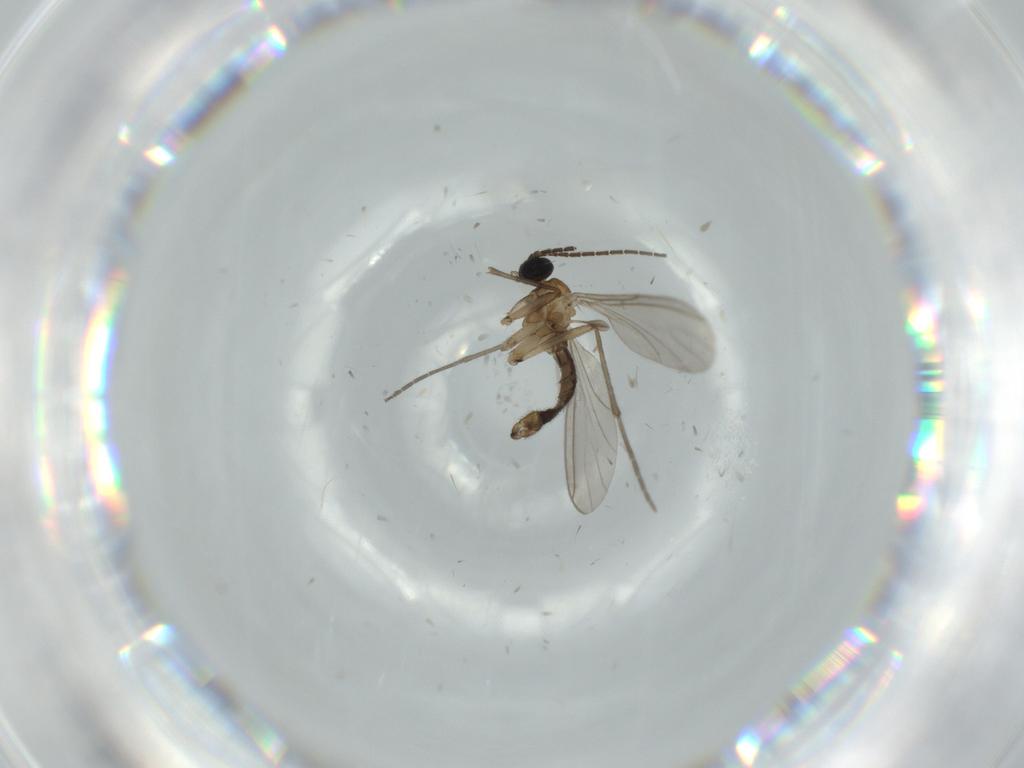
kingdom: Animalia
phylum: Arthropoda
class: Insecta
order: Diptera
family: Sciaridae
